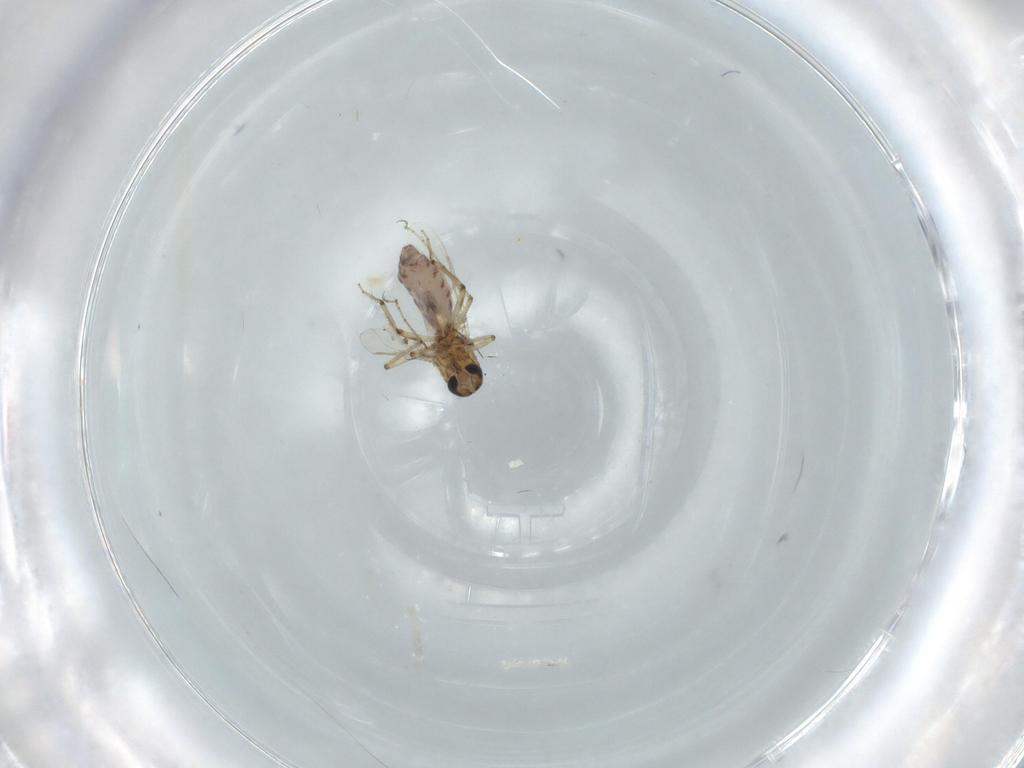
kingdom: Animalia
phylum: Arthropoda
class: Insecta
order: Diptera
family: Ceratopogonidae
